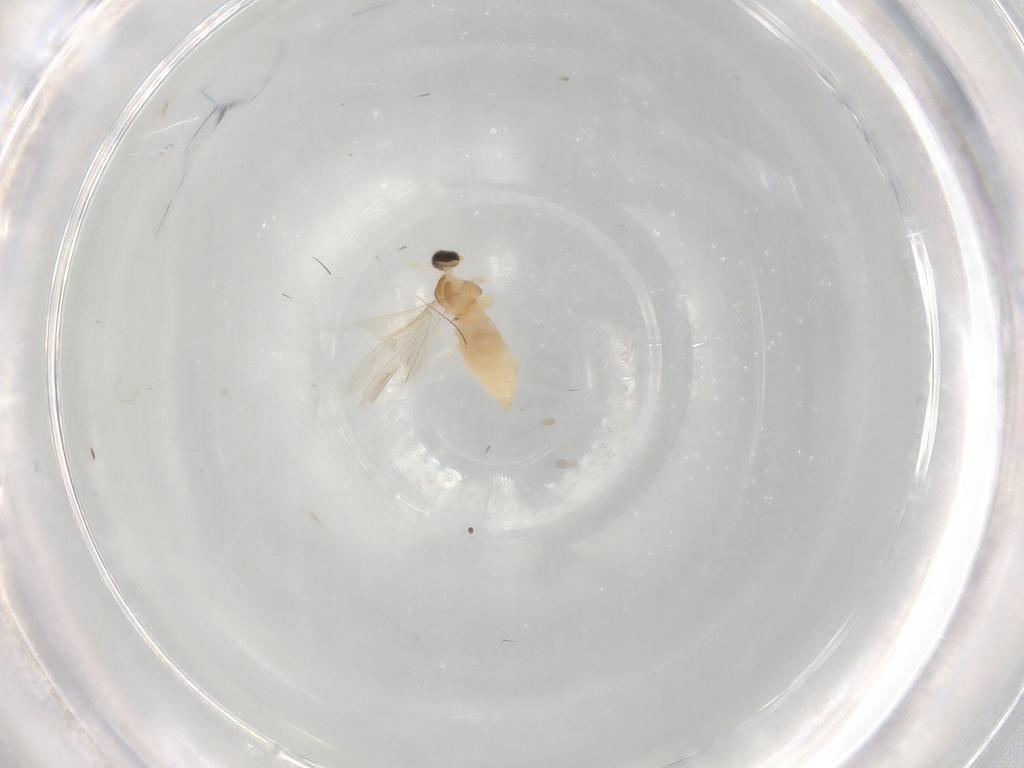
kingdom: Animalia
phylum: Arthropoda
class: Insecta
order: Diptera
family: Cecidomyiidae
